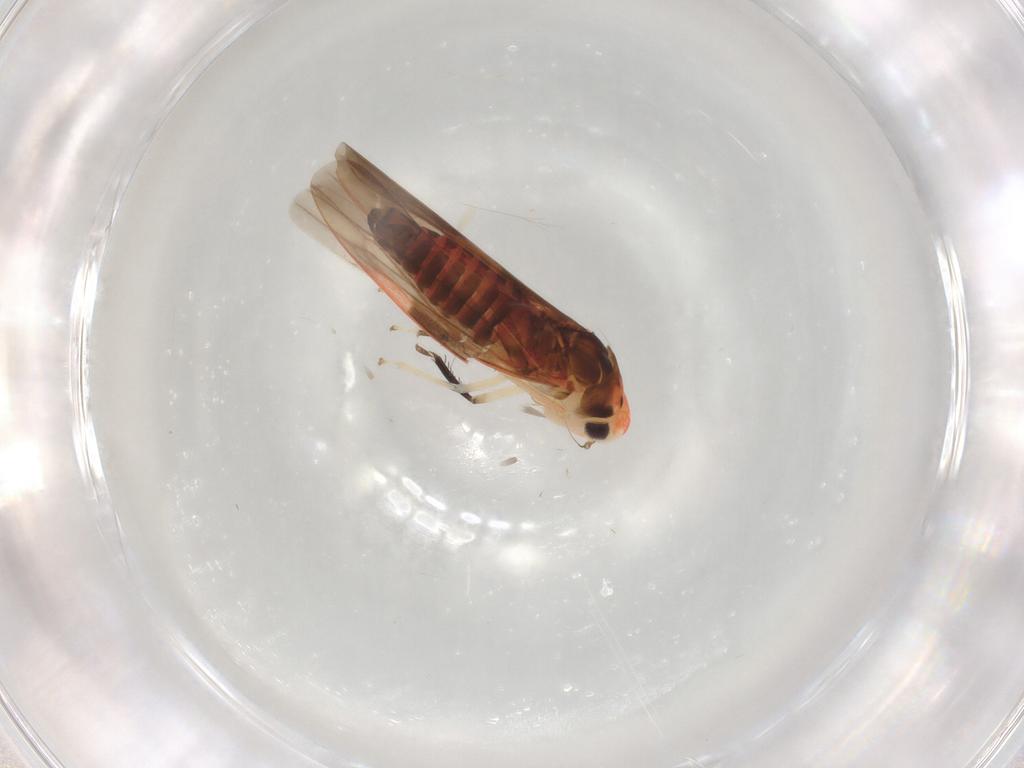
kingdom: Animalia
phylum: Arthropoda
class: Insecta
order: Hemiptera
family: Cicadellidae
